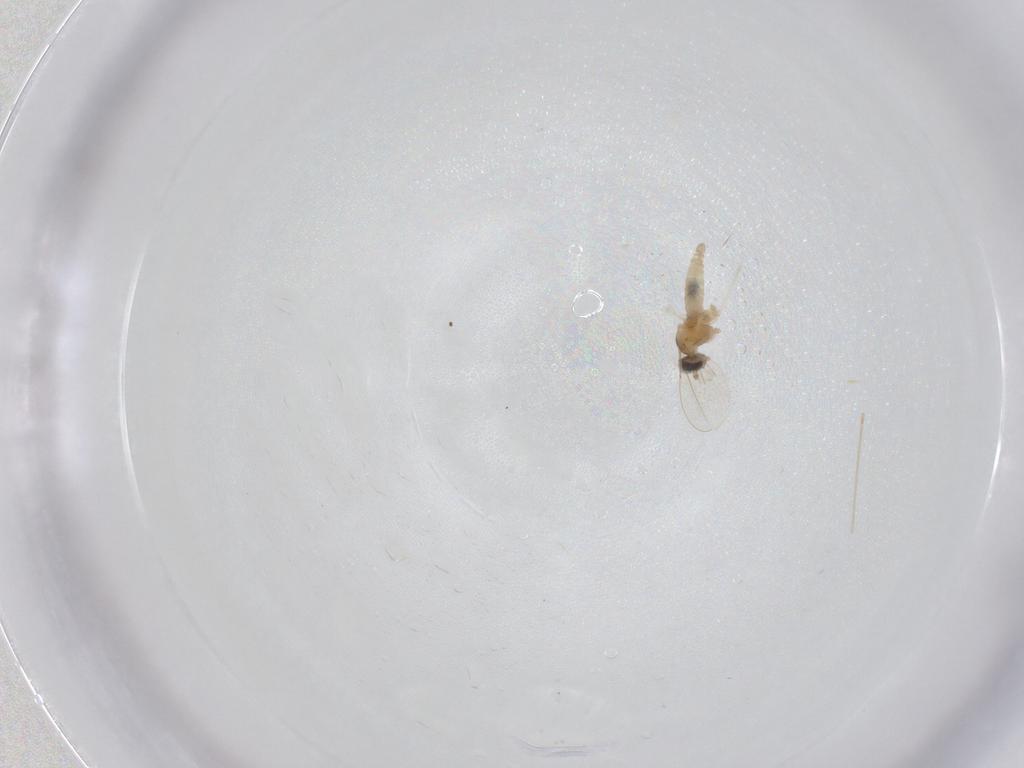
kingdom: Animalia
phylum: Arthropoda
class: Insecta
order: Diptera
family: Cecidomyiidae
